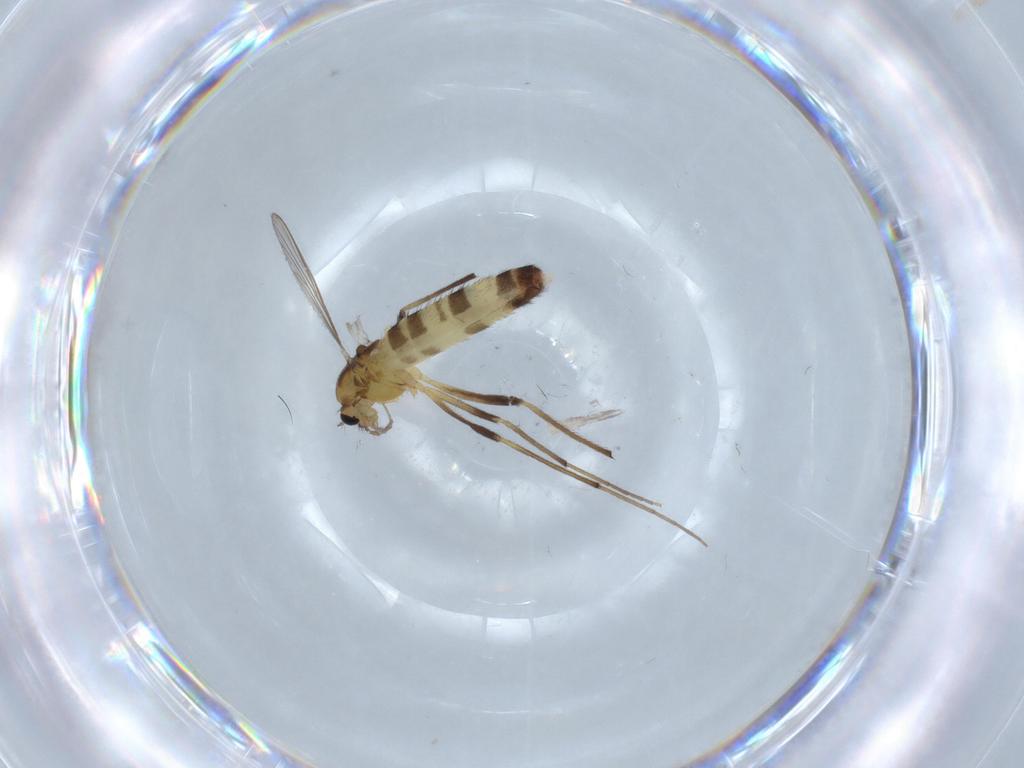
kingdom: Animalia
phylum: Arthropoda
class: Insecta
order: Diptera
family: Chironomidae
